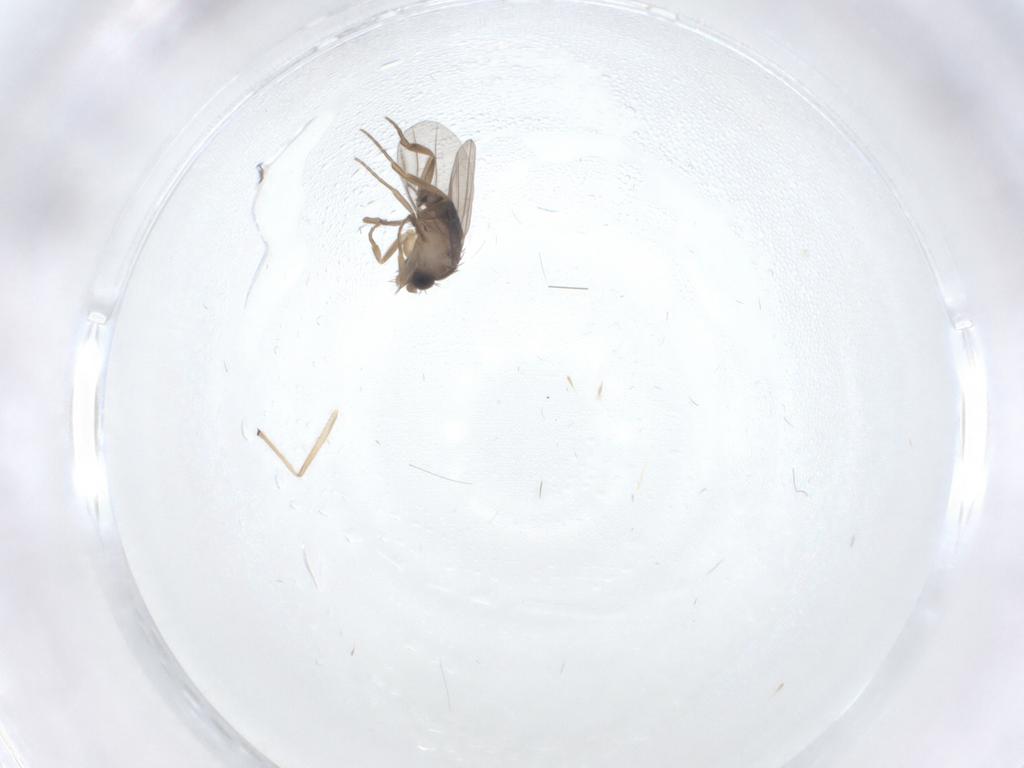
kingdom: Animalia
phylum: Arthropoda
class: Insecta
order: Diptera
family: Chironomidae
